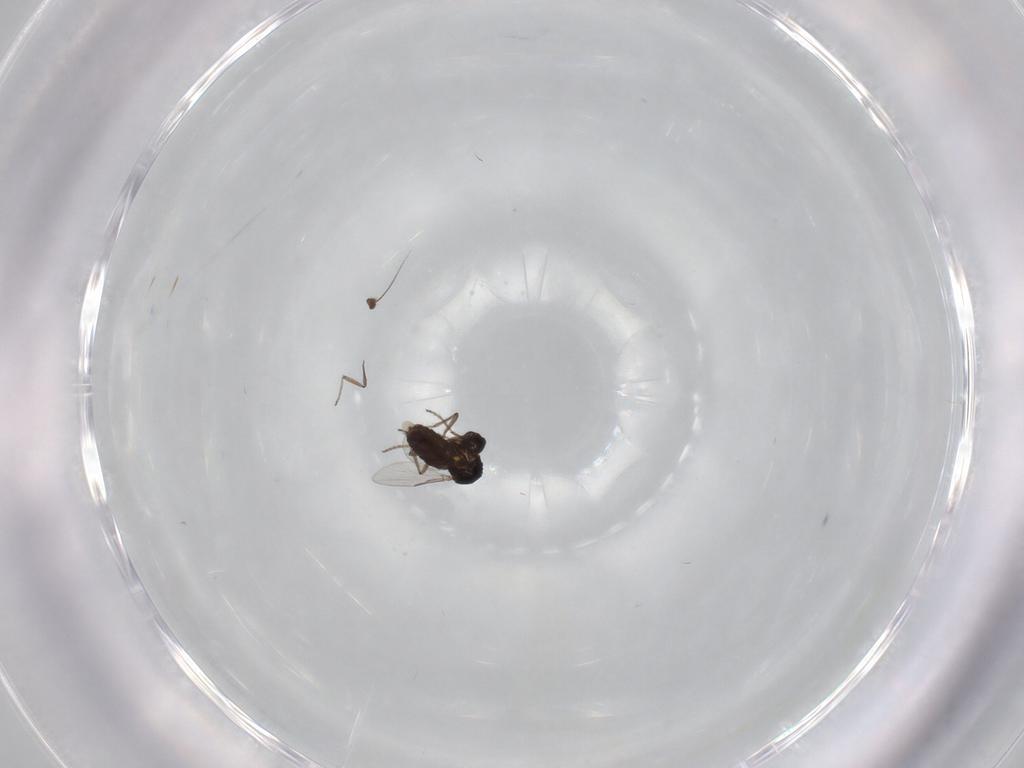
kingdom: Animalia
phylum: Arthropoda
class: Insecta
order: Diptera
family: Ceratopogonidae
